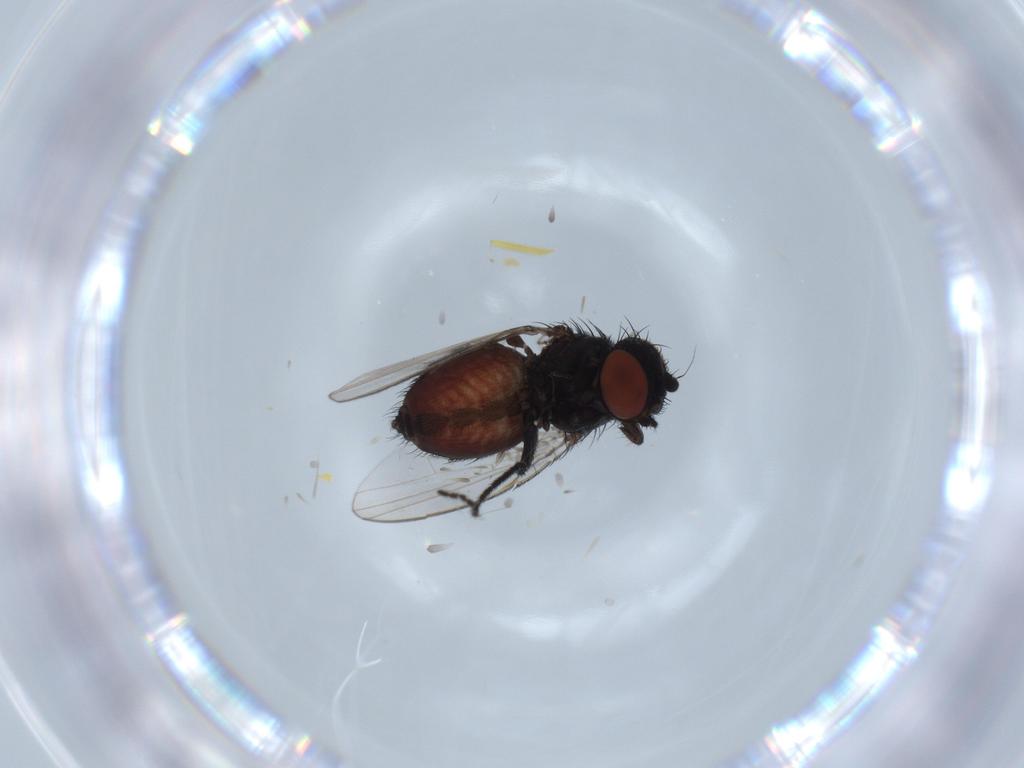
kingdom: Animalia
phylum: Arthropoda
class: Insecta
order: Diptera
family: Milichiidae
